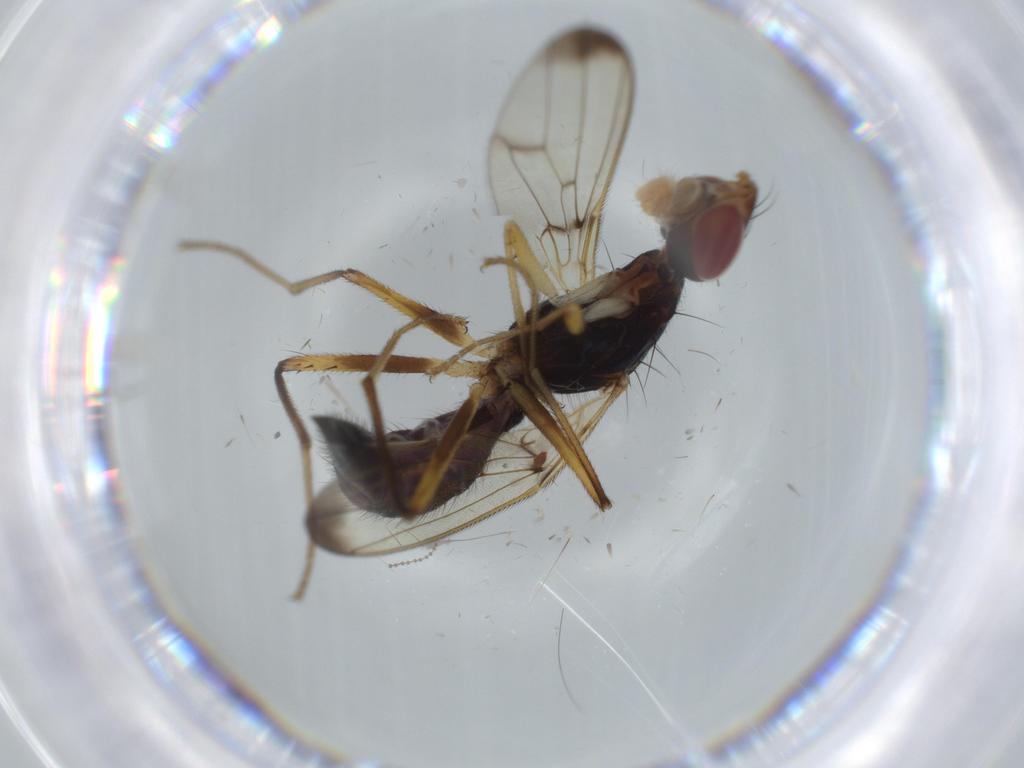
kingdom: Animalia
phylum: Arthropoda
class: Insecta
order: Diptera
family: Phoridae
